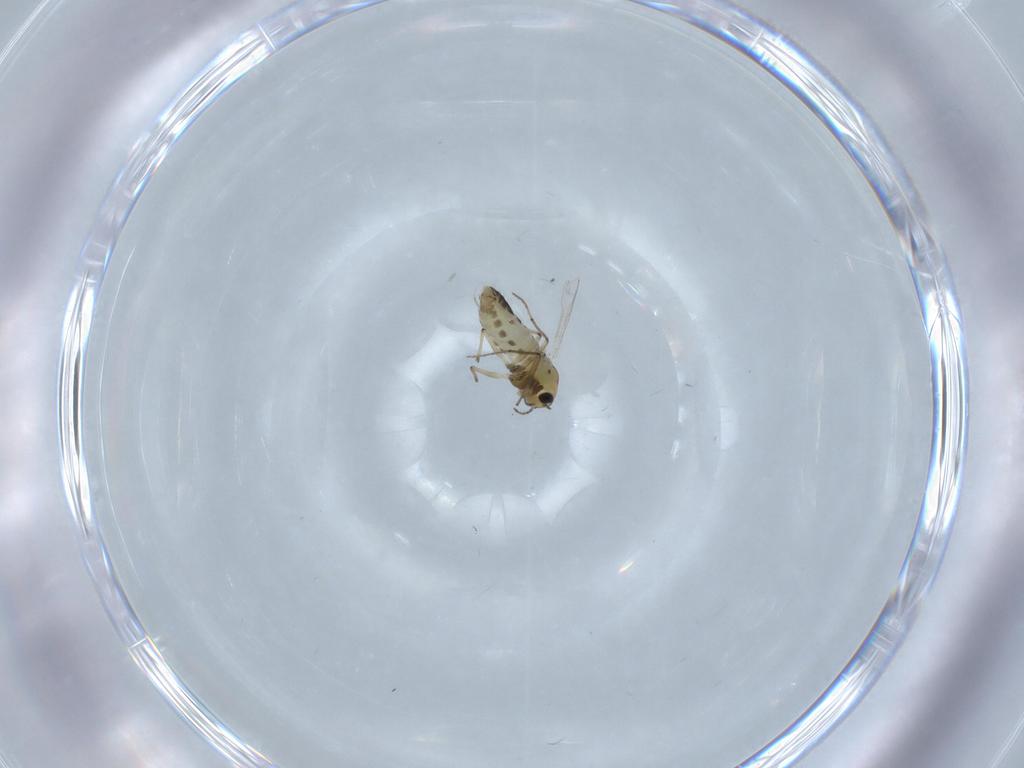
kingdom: Animalia
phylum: Arthropoda
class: Insecta
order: Diptera
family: Chironomidae
